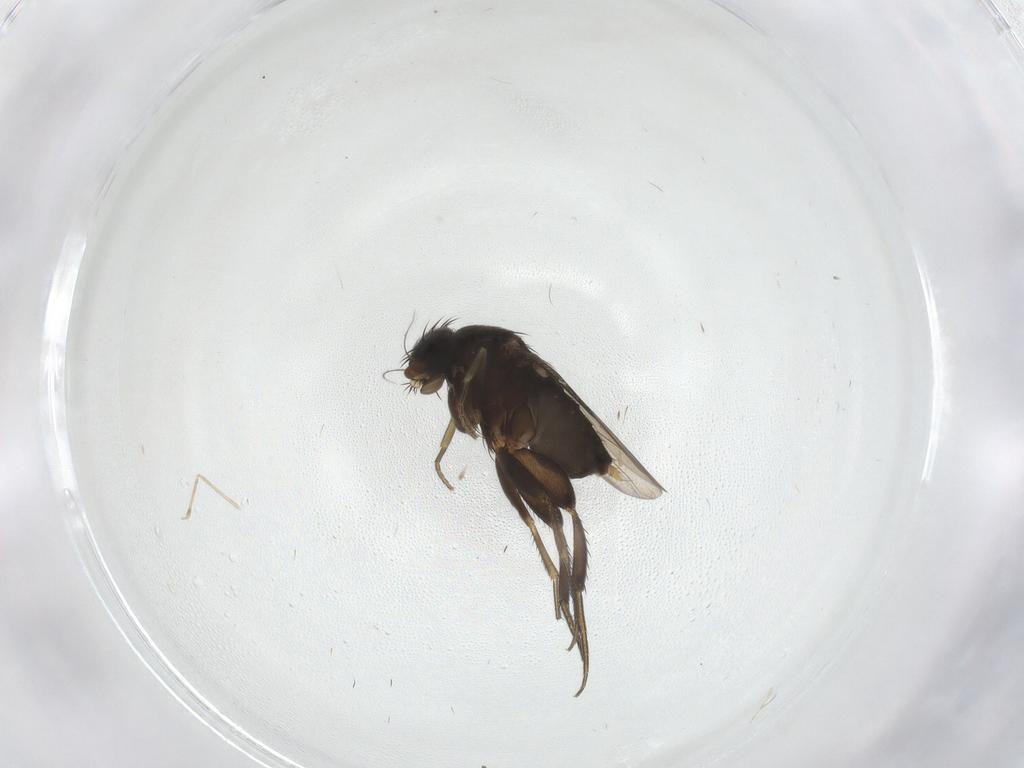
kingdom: Animalia
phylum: Arthropoda
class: Insecta
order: Diptera
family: Phoridae
